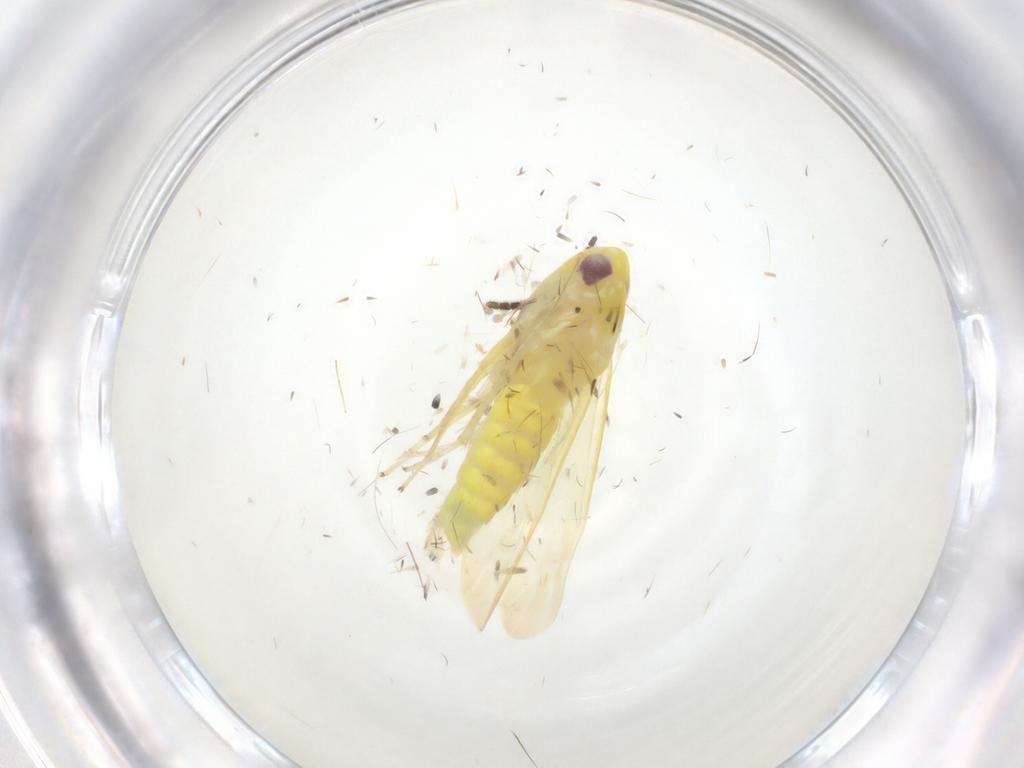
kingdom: Animalia
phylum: Arthropoda
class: Insecta
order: Hemiptera
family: Cicadellidae
